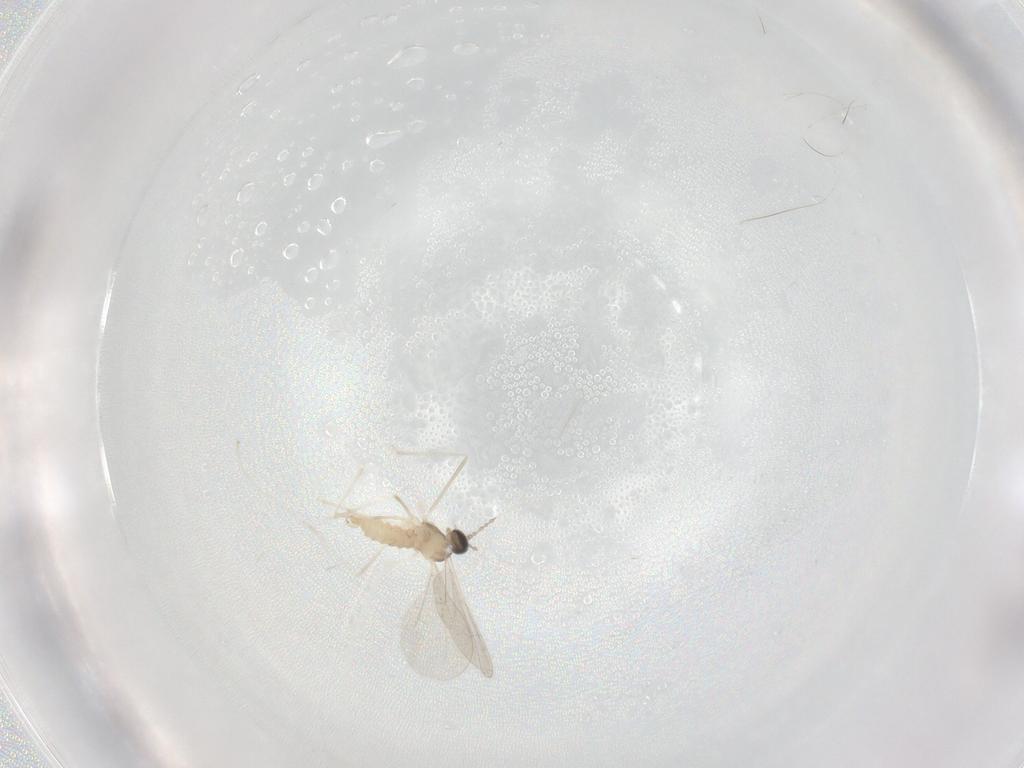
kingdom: Animalia
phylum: Arthropoda
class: Insecta
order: Diptera
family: Cecidomyiidae
